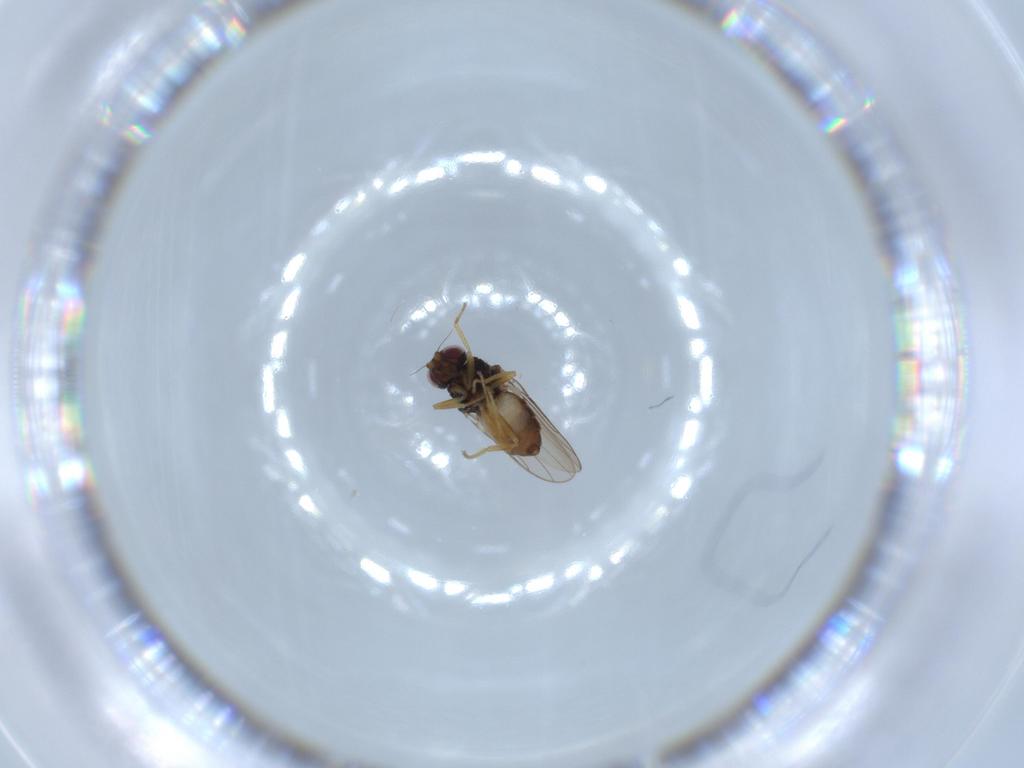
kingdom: Animalia
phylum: Arthropoda
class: Insecta
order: Diptera
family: Sciaridae
